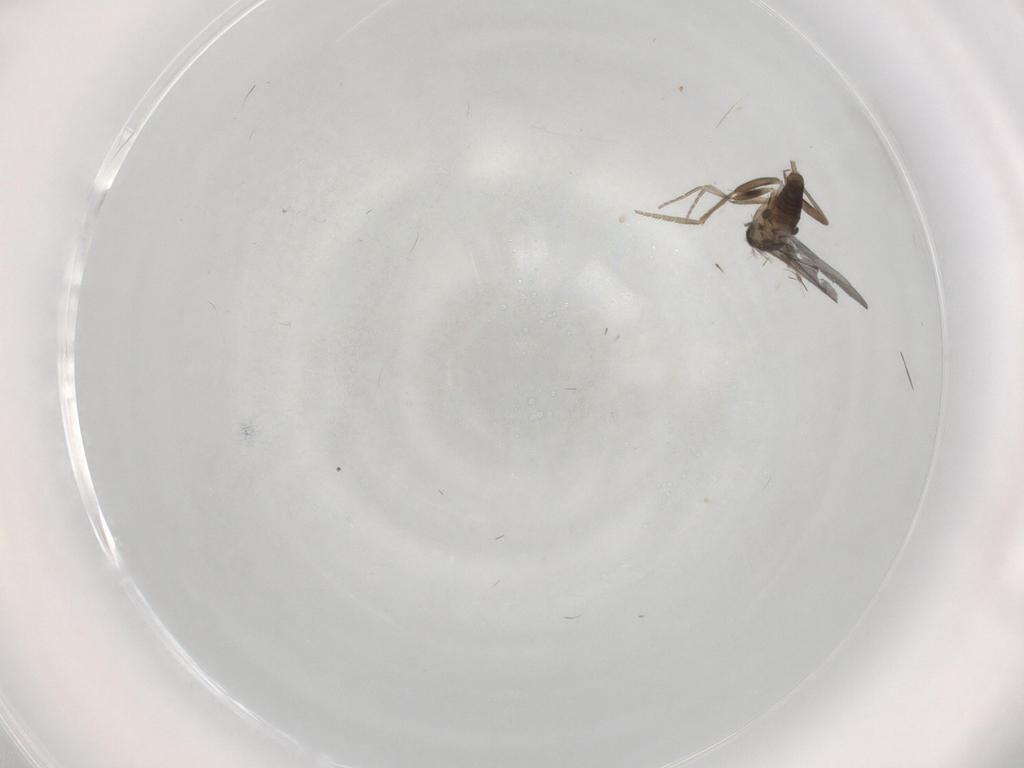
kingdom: Animalia
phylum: Arthropoda
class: Insecta
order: Diptera
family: Phoridae
